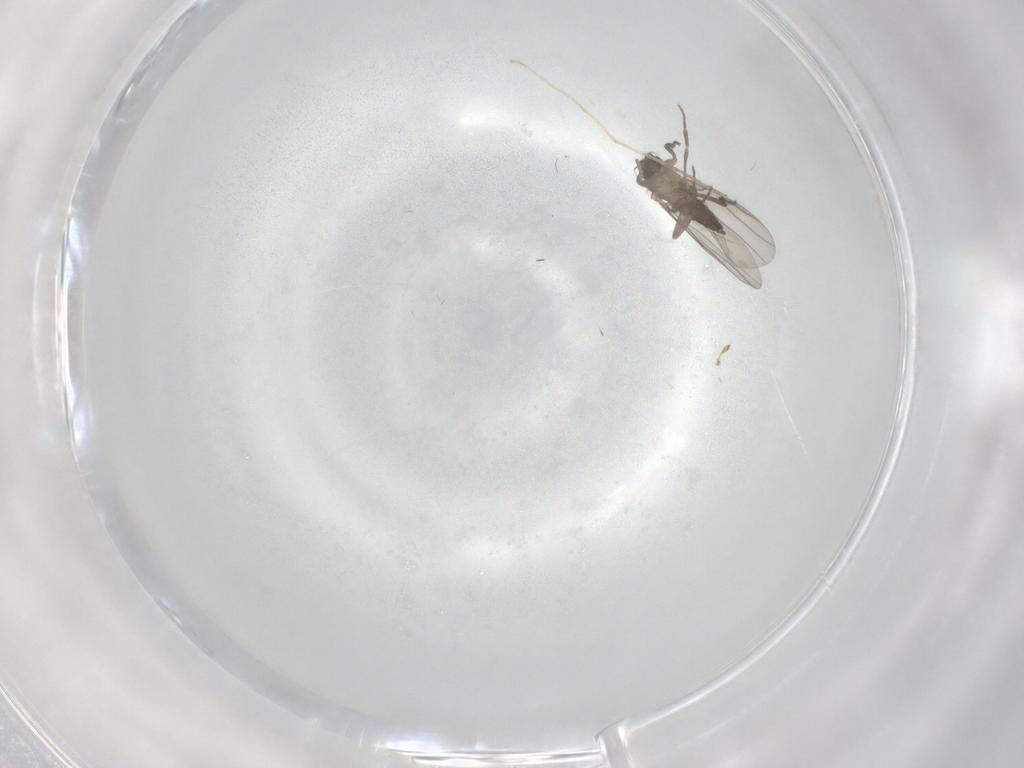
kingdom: Animalia
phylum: Arthropoda
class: Insecta
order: Diptera
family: Chironomidae
